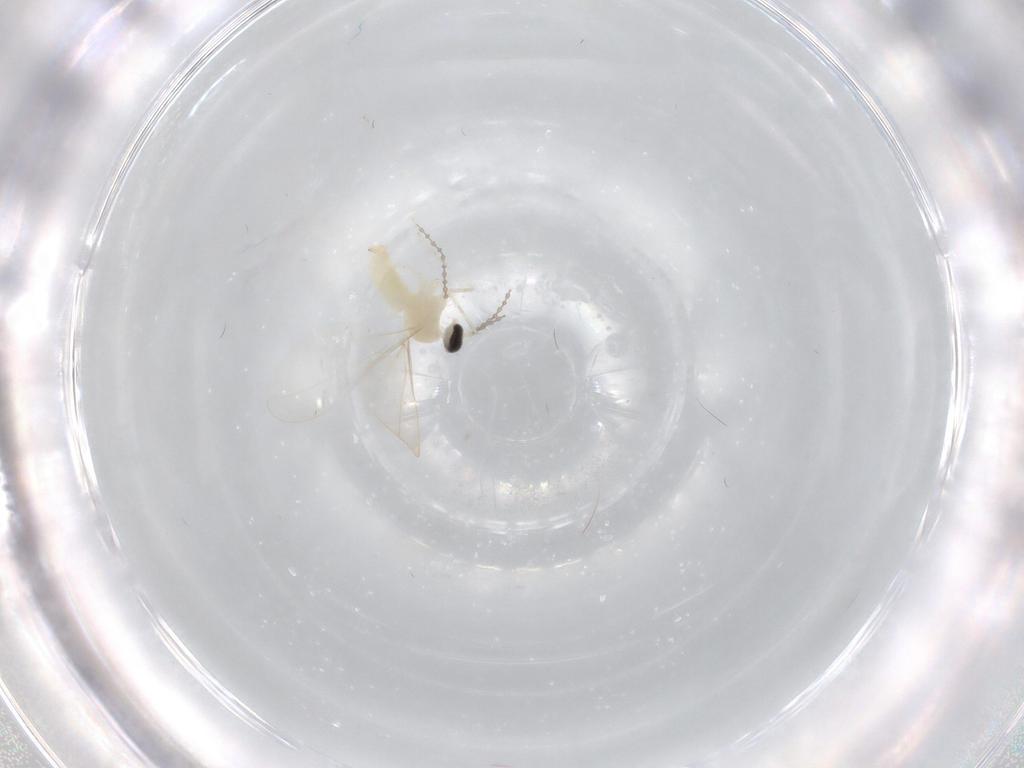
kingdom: Animalia
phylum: Arthropoda
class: Insecta
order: Diptera
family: Cecidomyiidae
